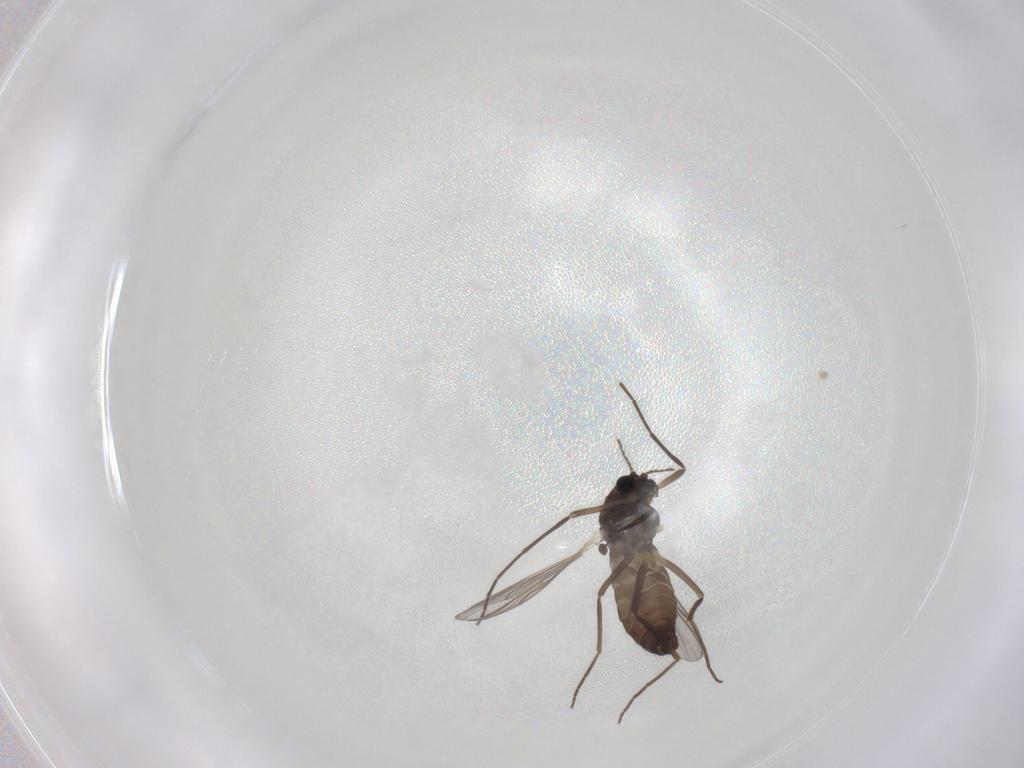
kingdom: Animalia
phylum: Arthropoda
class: Insecta
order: Diptera
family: Chironomidae
